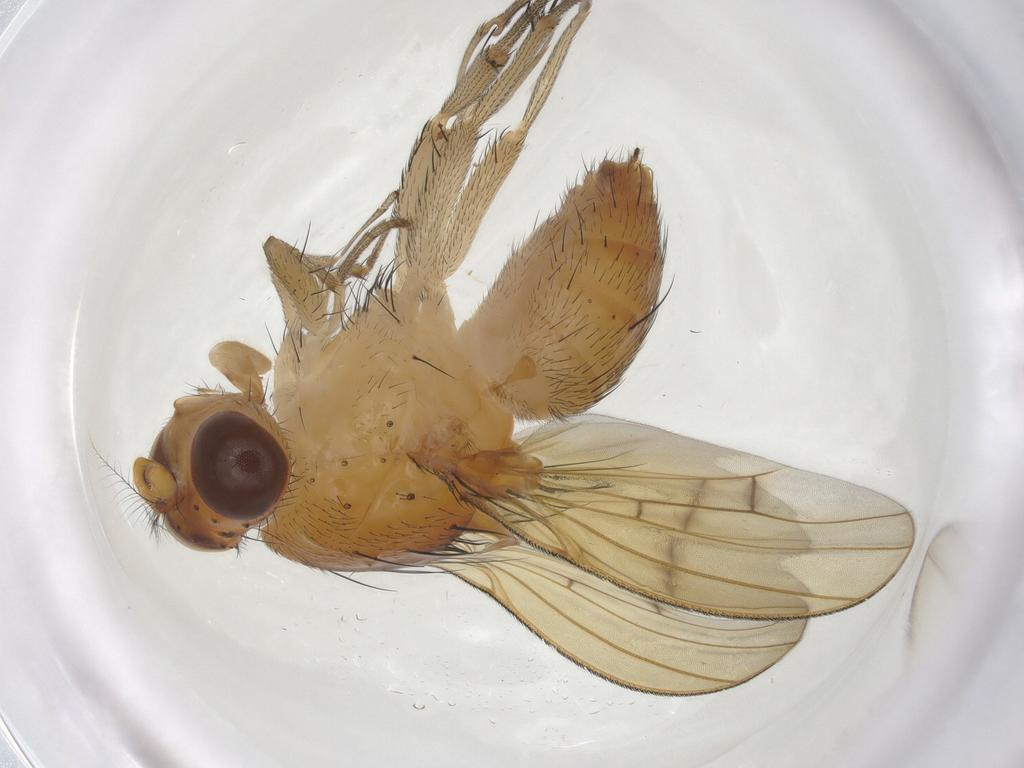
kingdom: Animalia
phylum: Arthropoda
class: Insecta
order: Diptera
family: Lauxaniidae
